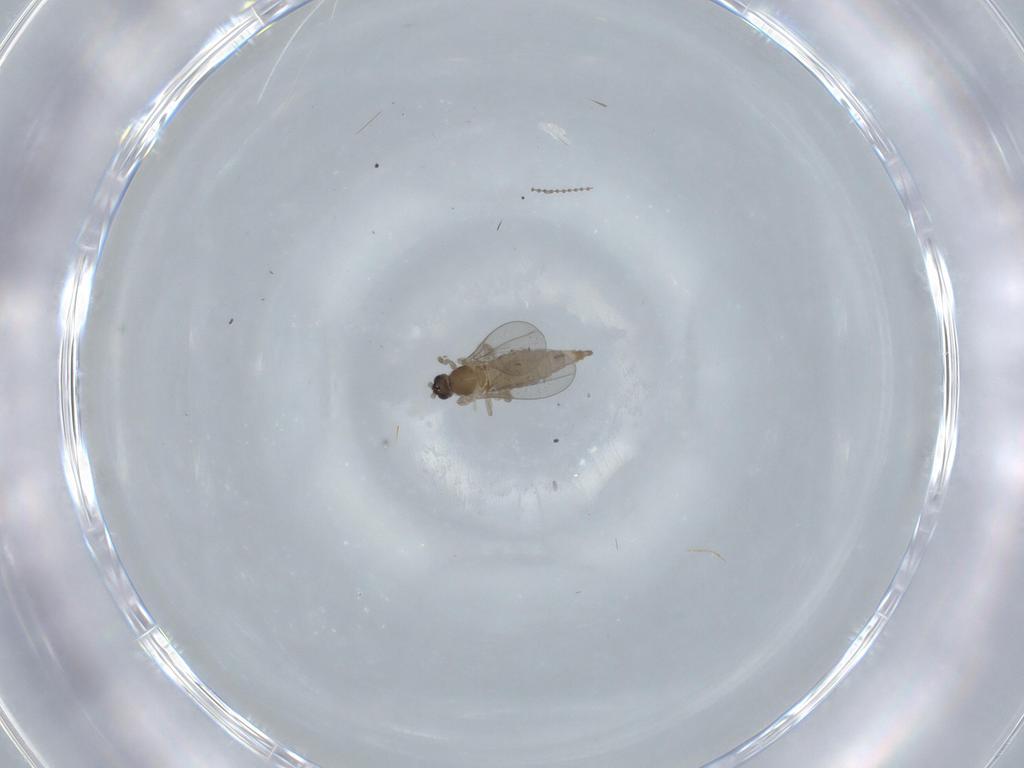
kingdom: Animalia
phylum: Arthropoda
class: Insecta
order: Diptera
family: Cecidomyiidae
